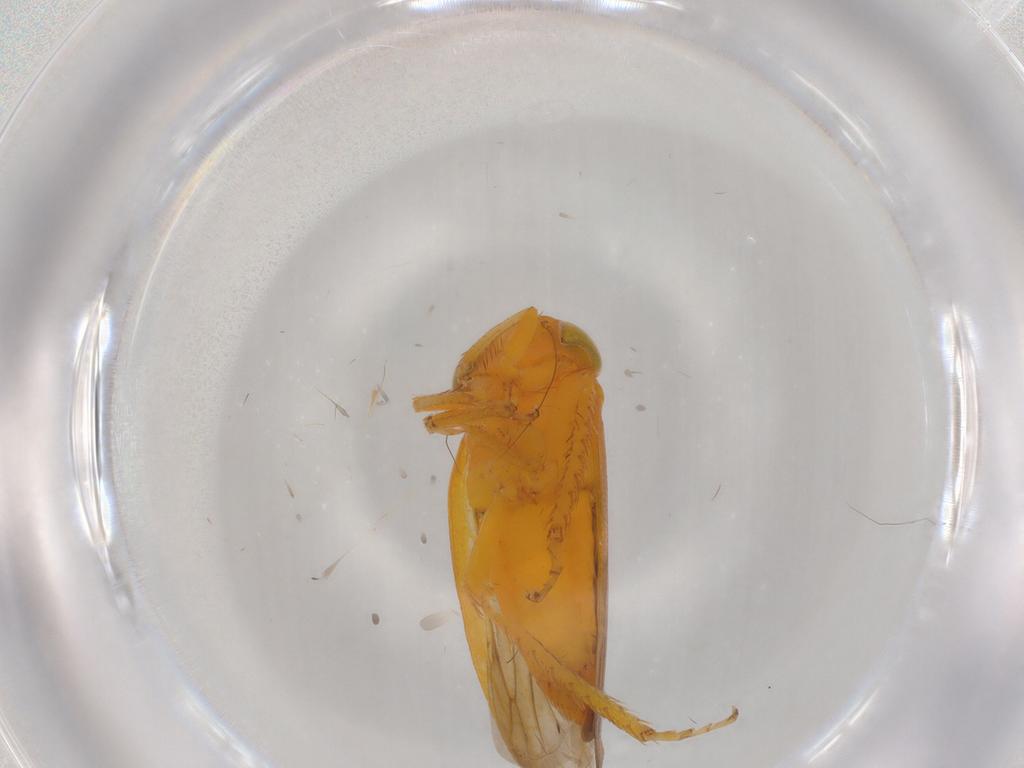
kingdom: Animalia
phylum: Arthropoda
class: Insecta
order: Hemiptera
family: Cicadellidae
